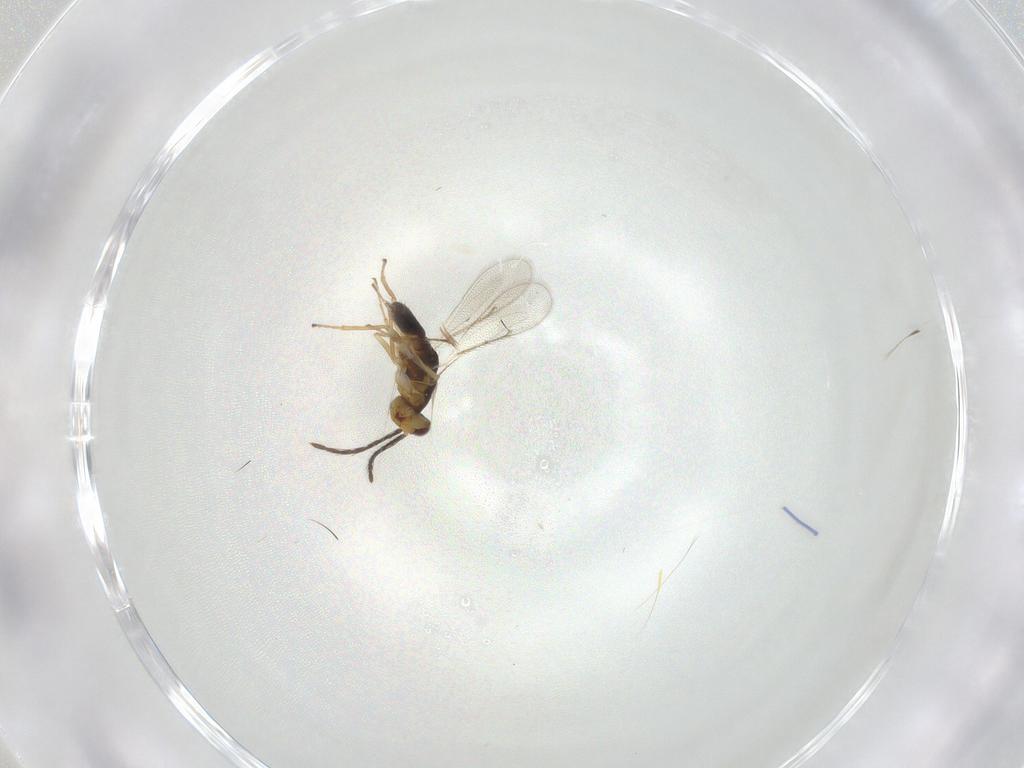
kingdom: Animalia
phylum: Arthropoda
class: Insecta
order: Hymenoptera
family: Eulophidae
